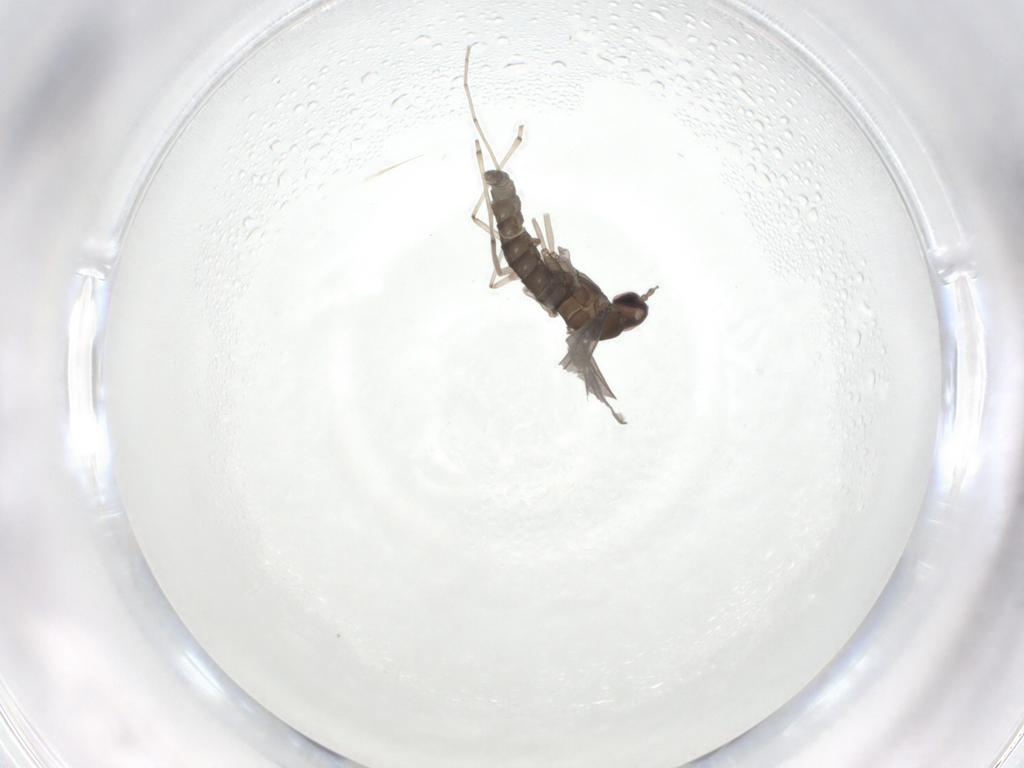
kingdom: Animalia
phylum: Arthropoda
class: Insecta
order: Diptera
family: Cecidomyiidae
